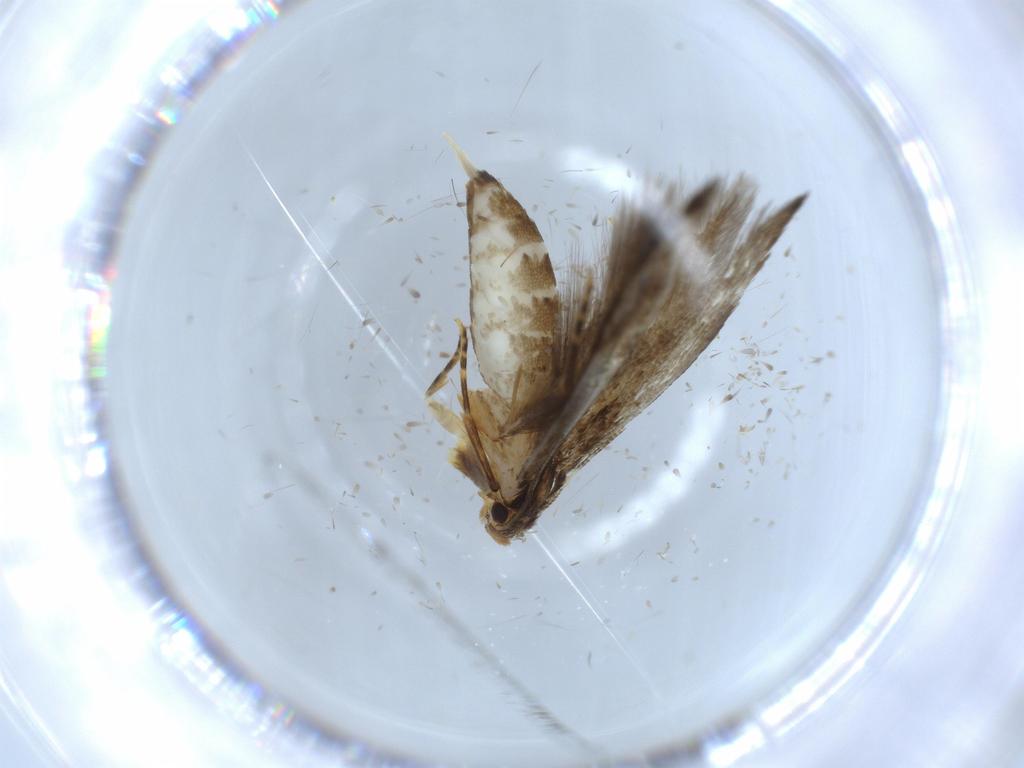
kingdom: Animalia
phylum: Arthropoda
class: Insecta
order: Lepidoptera
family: Tineidae
